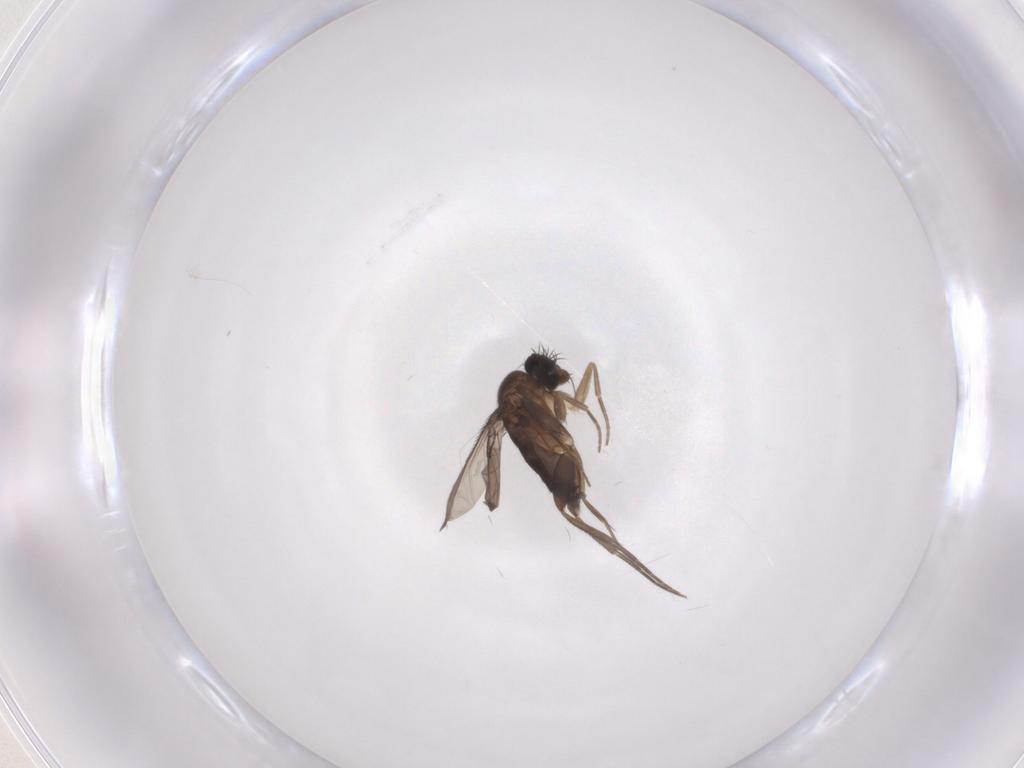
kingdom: Animalia
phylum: Arthropoda
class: Insecta
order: Diptera
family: Phoridae
